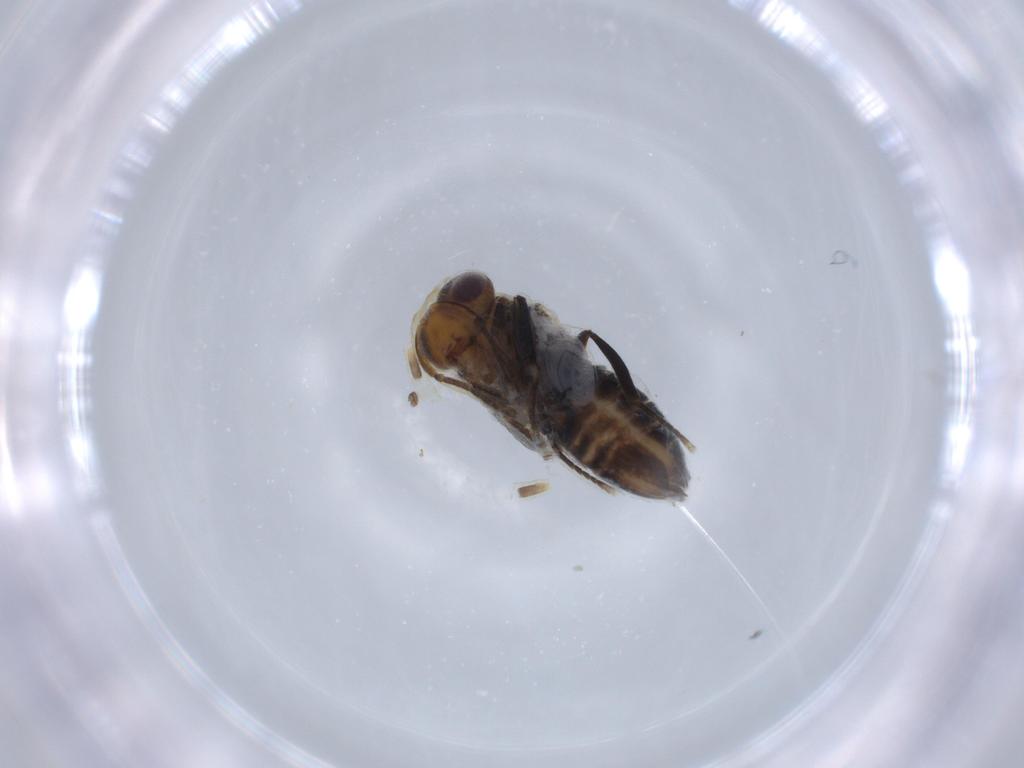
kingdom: Animalia
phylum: Arthropoda
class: Insecta
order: Hymenoptera
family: Encyrtidae
